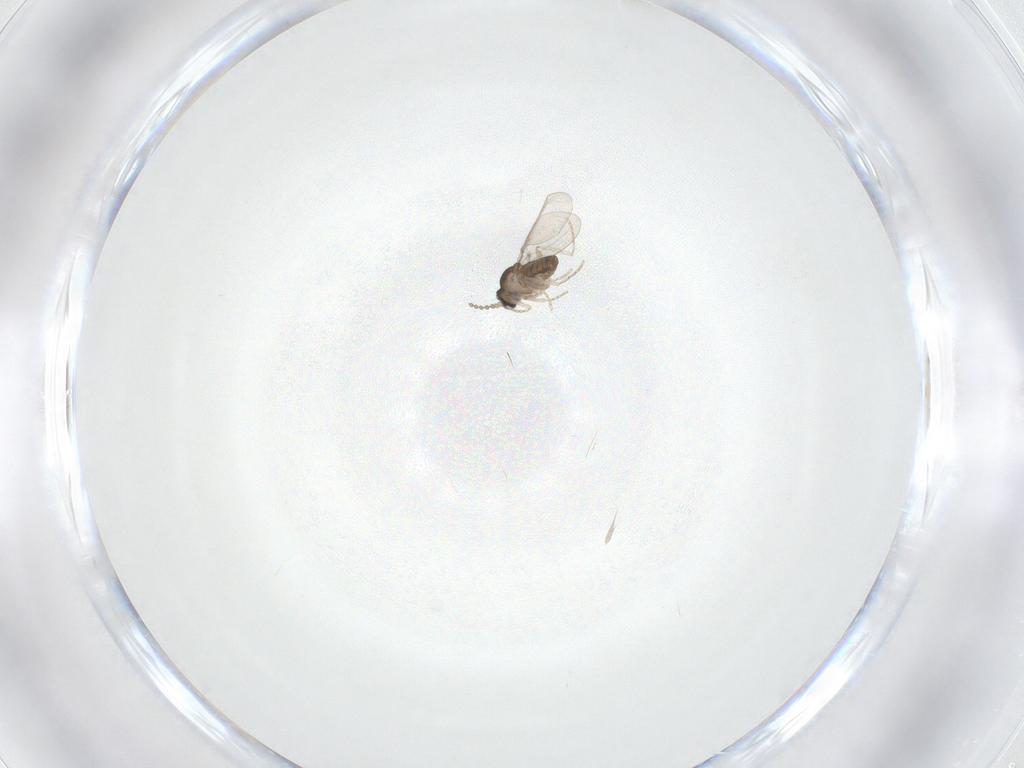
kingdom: Animalia
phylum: Arthropoda
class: Insecta
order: Diptera
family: Cecidomyiidae
